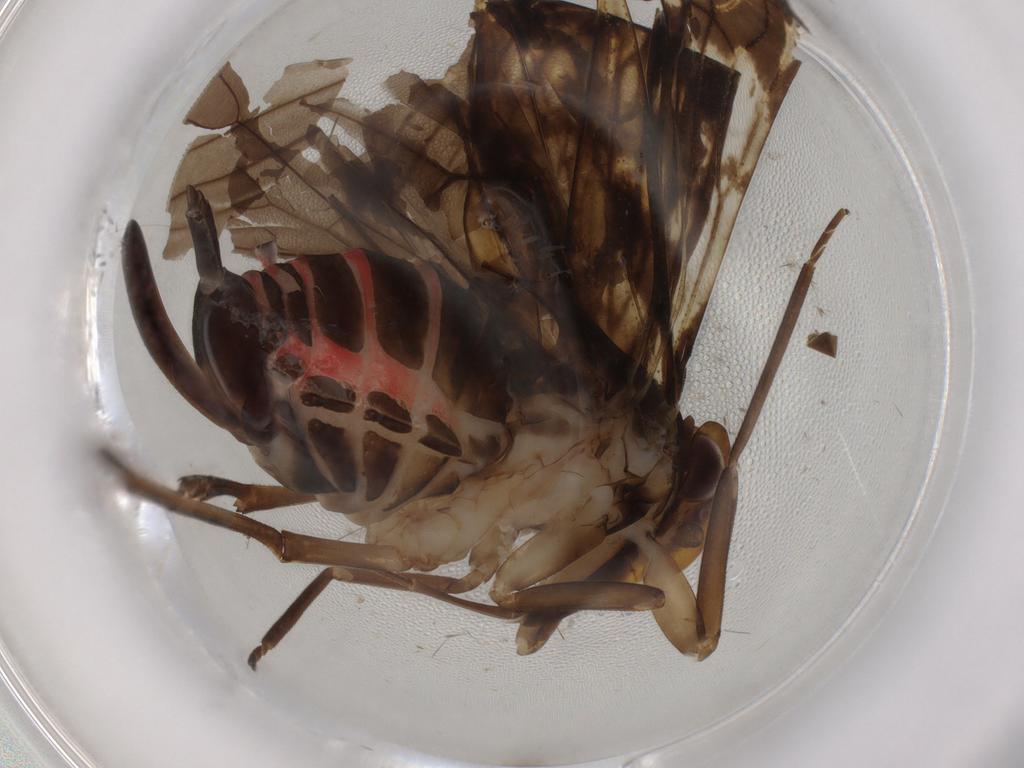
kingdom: Animalia
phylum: Arthropoda
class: Insecta
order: Hemiptera
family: Cixiidae
